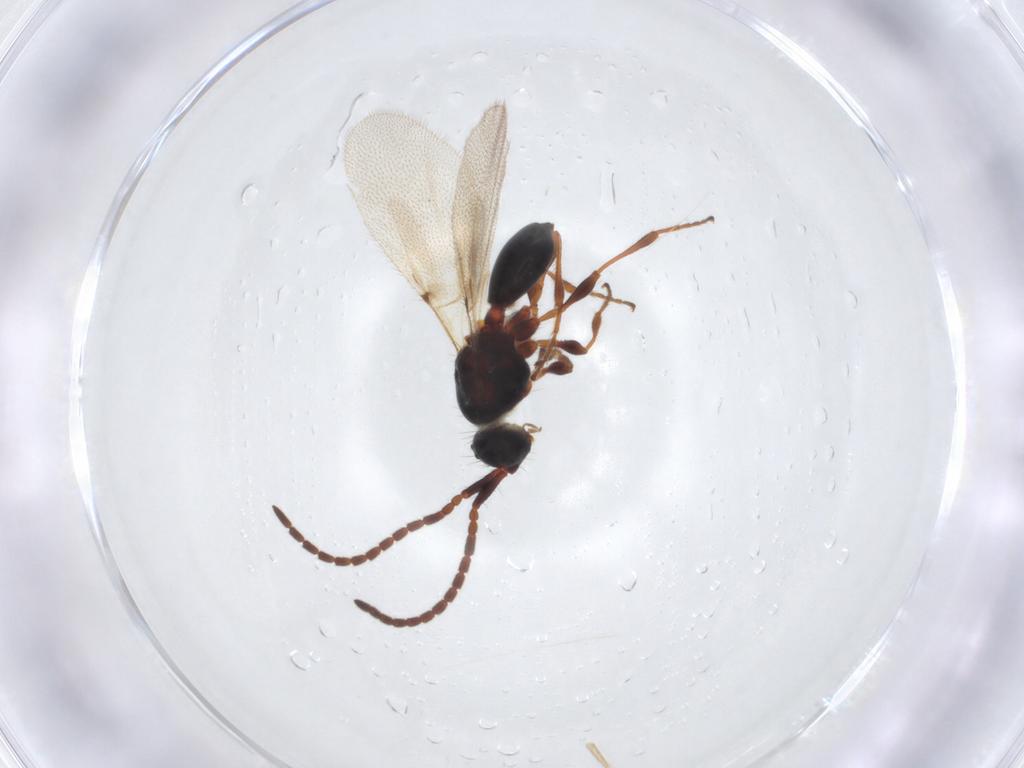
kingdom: Animalia
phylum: Arthropoda
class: Insecta
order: Hymenoptera
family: Diapriidae
